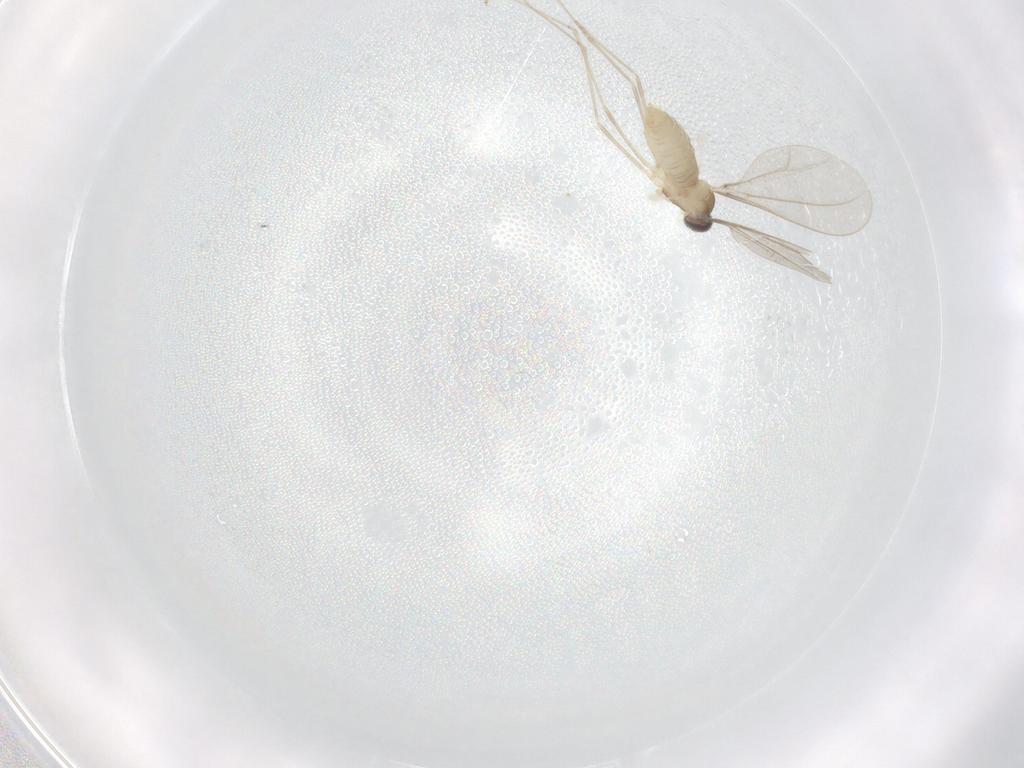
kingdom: Animalia
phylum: Arthropoda
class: Insecta
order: Diptera
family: Cecidomyiidae
